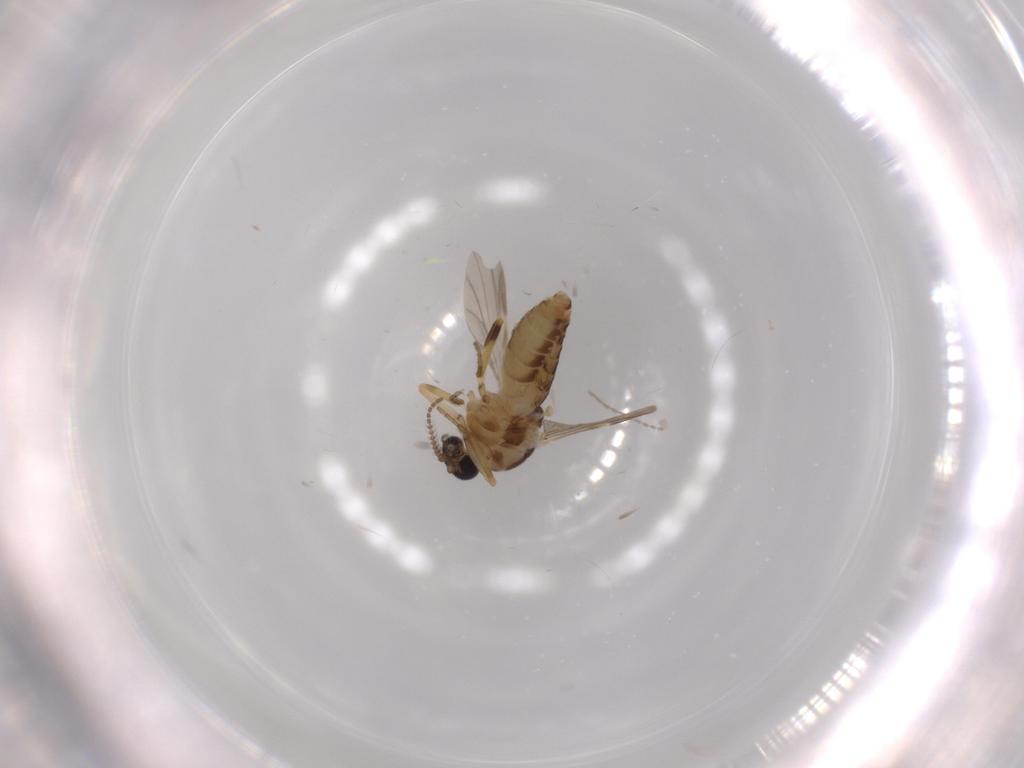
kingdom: Animalia
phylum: Arthropoda
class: Insecta
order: Diptera
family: Ceratopogonidae
